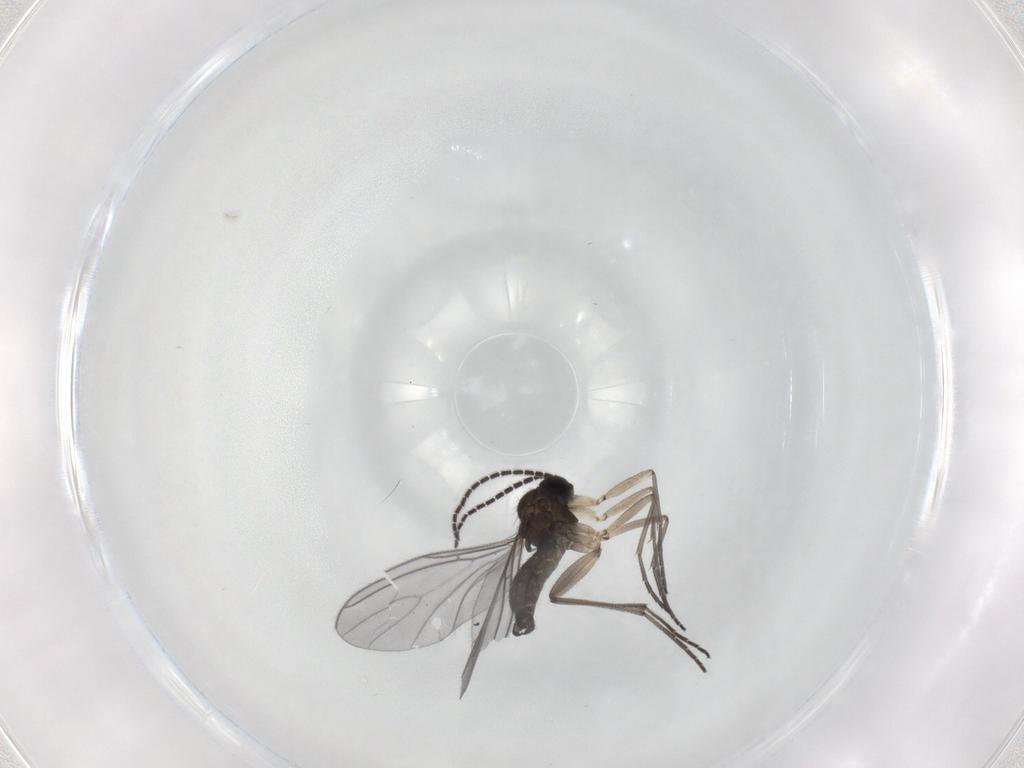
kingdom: Animalia
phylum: Arthropoda
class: Insecta
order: Diptera
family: Sciaridae
